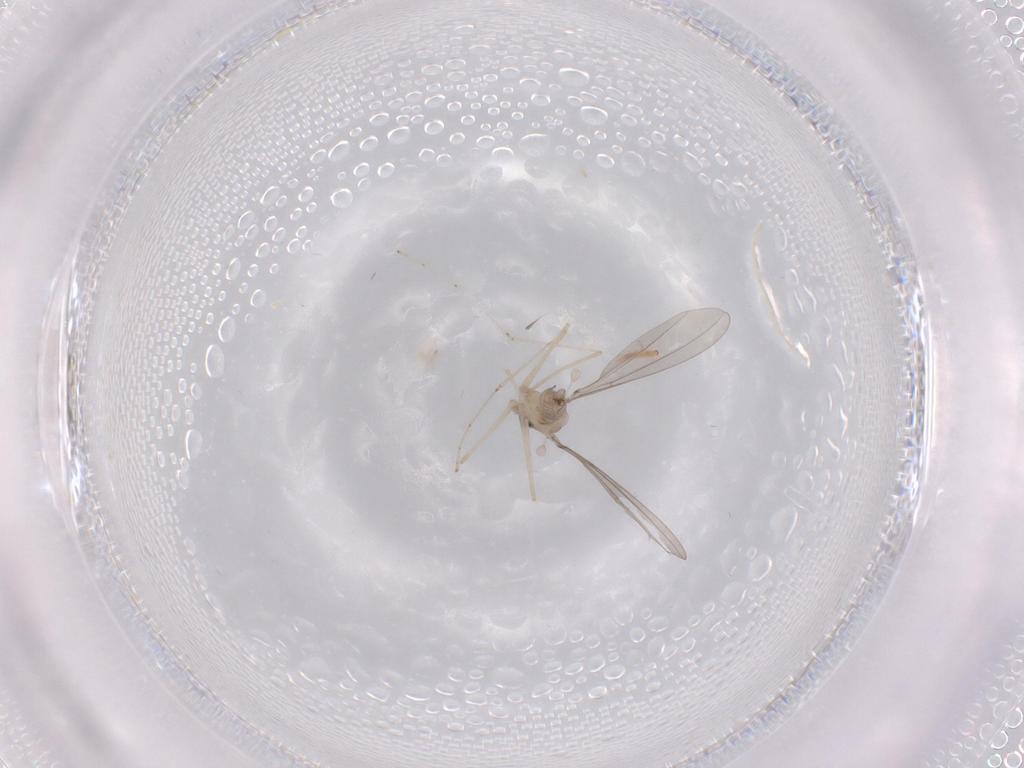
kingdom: Animalia
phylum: Arthropoda
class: Insecta
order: Diptera
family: Cecidomyiidae
